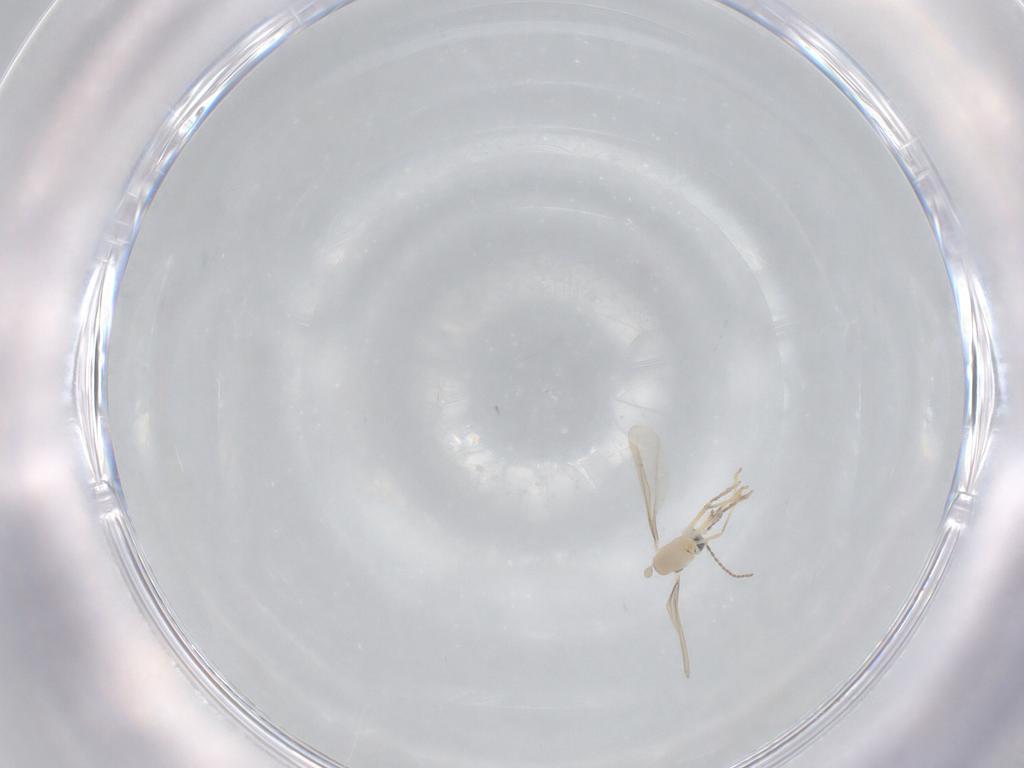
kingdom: Animalia
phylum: Arthropoda
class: Insecta
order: Diptera
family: Cecidomyiidae
